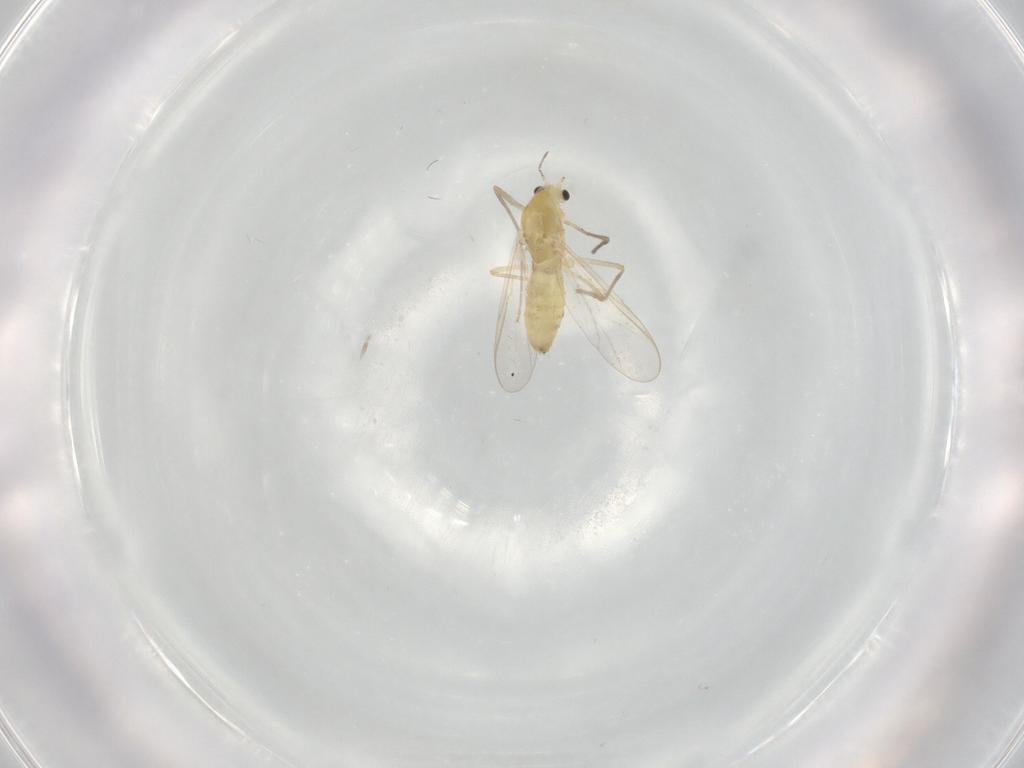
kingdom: Animalia
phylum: Arthropoda
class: Insecta
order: Diptera
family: Chironomidae
